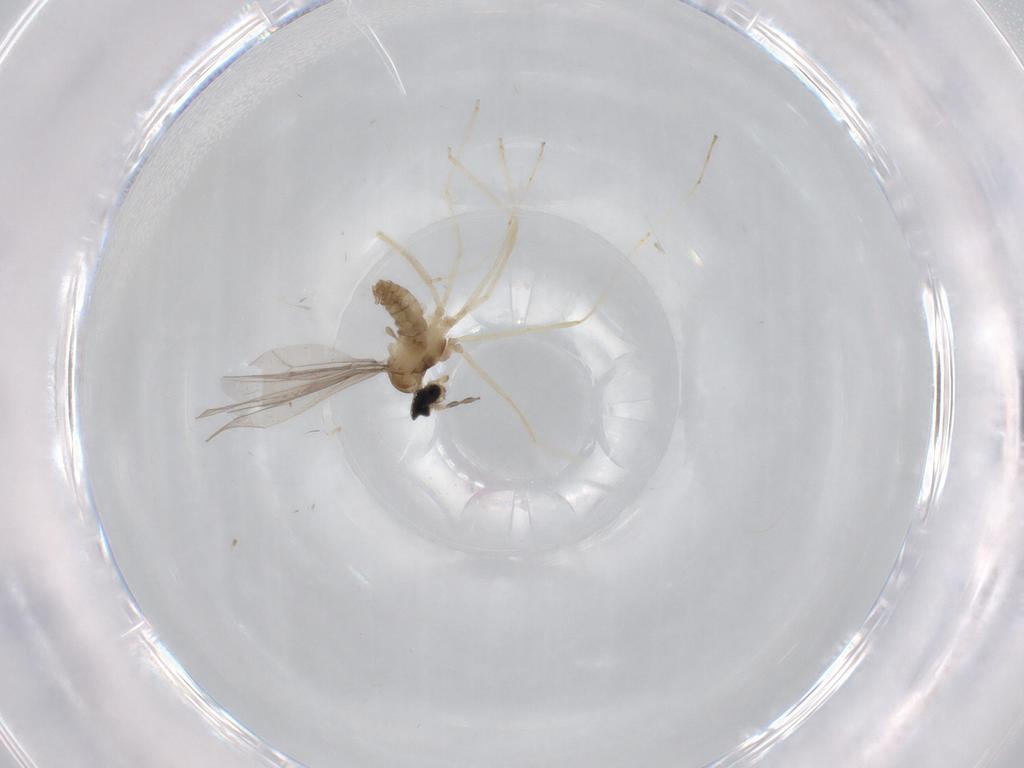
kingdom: Animalia
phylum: Arthropoda
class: Insecta
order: Diptera
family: Cecidomyiidae
